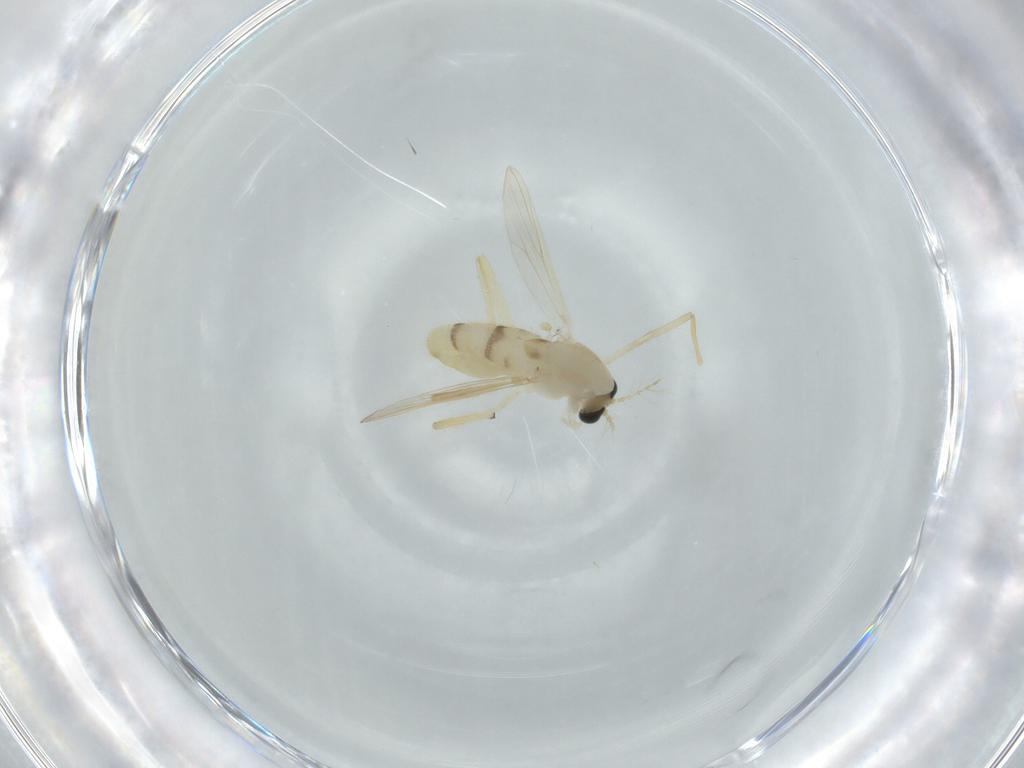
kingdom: Animalia
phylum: Arthropoda
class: Insecta
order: Diptera
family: Chironomidae
